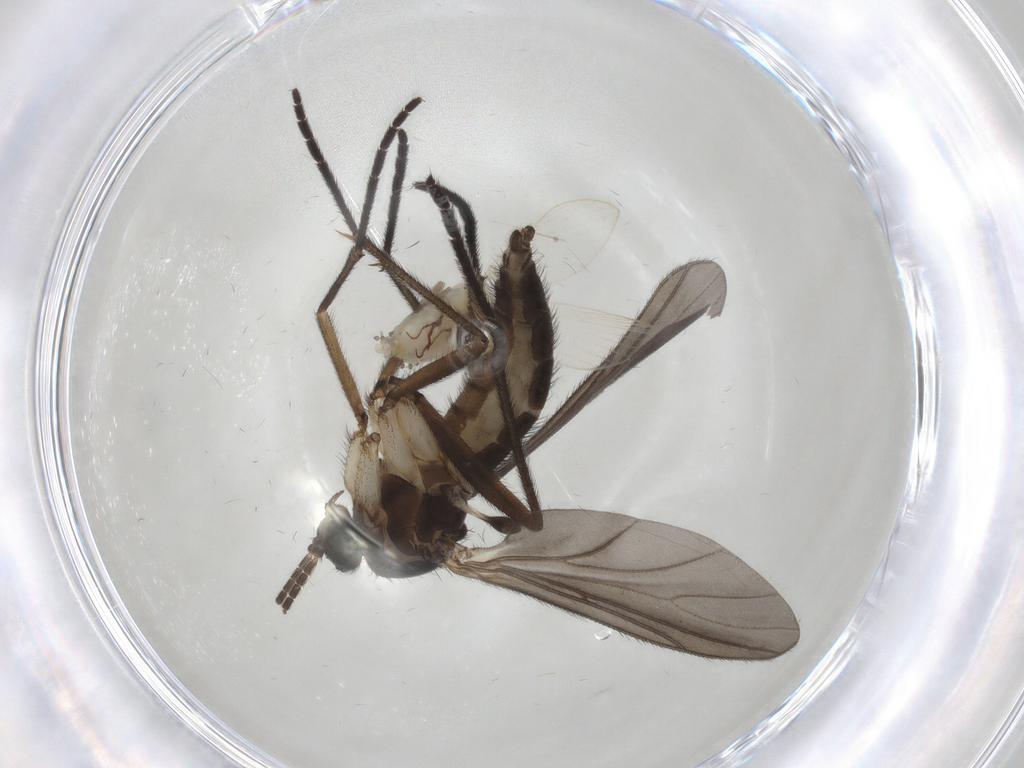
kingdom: Animalia
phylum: Arthropoda
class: Insecta
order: Diptera
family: Sciaridae
